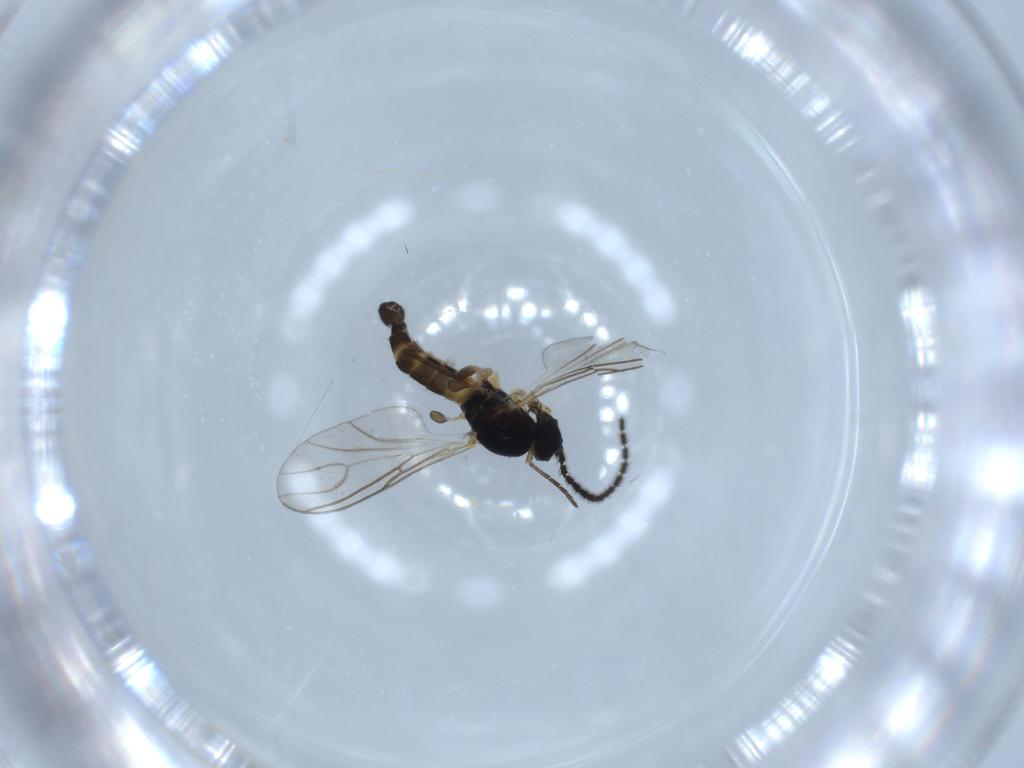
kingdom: Animalia
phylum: Arthropoda
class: Insecta
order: Diptera
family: Sciaridae
